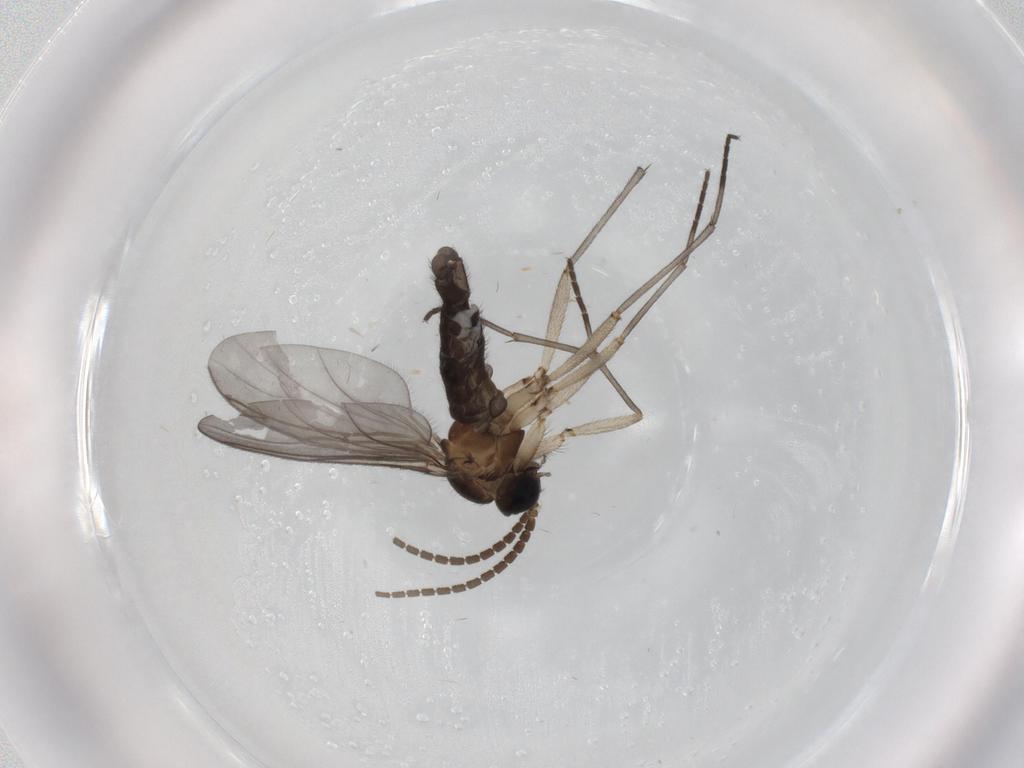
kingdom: Animalia
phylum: Arthropoda
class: Insecta
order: Diptera
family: Sciaridae
